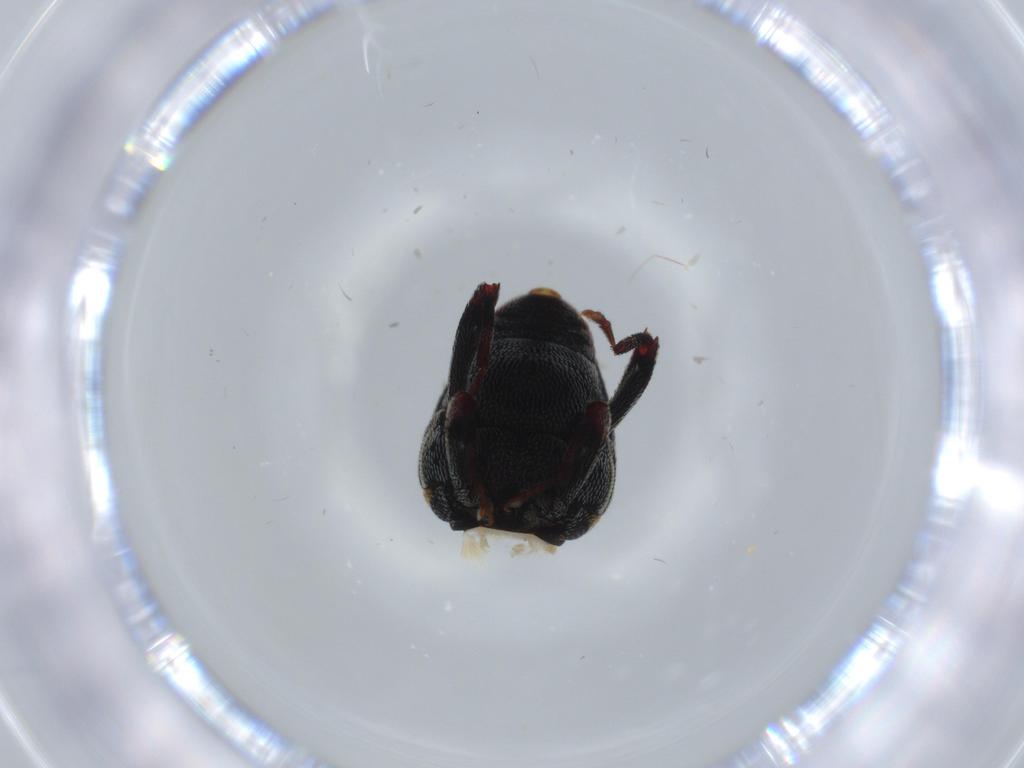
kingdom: Animalia
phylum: Arthropoda
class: Insecta
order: Coleoptera
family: Curculionidae
